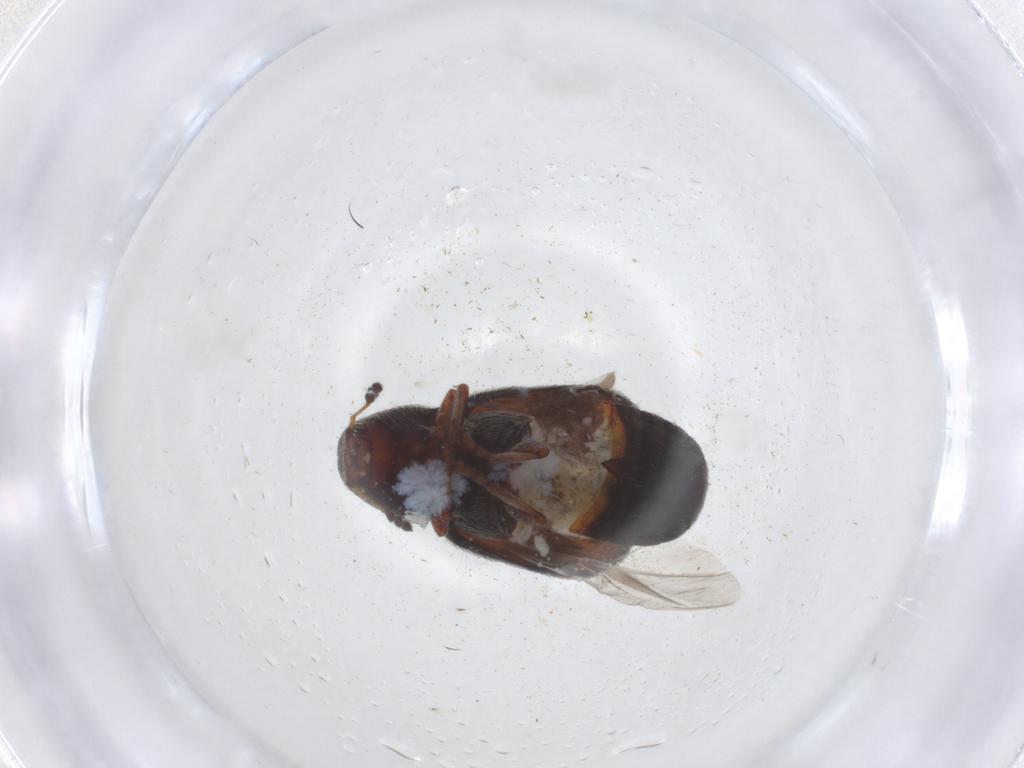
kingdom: Animalia
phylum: Arthropoda
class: Insecta
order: Coleoptera
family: Anthribidae
